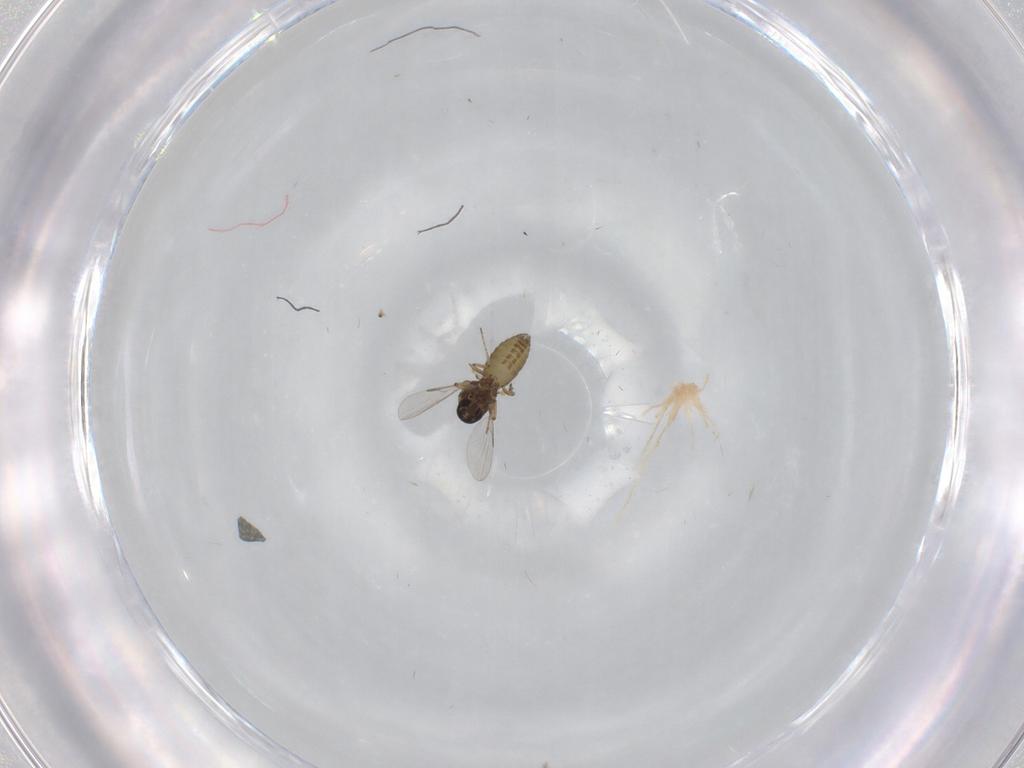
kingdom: Animalia
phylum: Arthropoda
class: Insecta
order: Diptera
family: Ceratopogonidae
